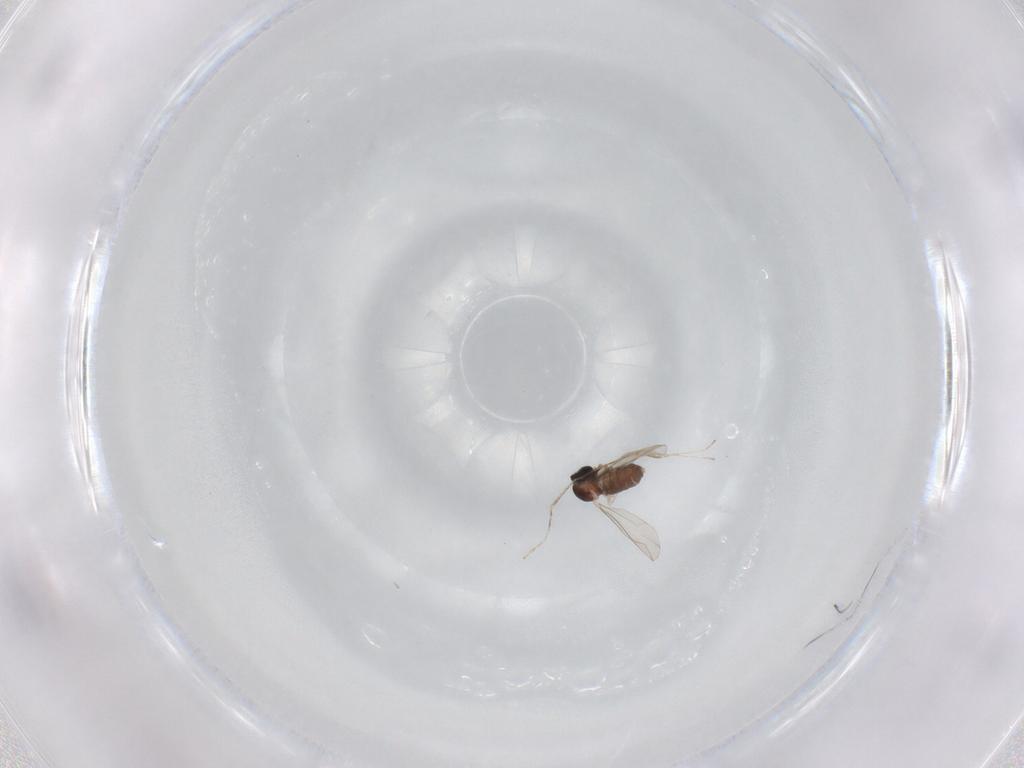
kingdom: Animalia
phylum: Arthropoda
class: Insecta
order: Diptera
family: Cecidomyiidae
